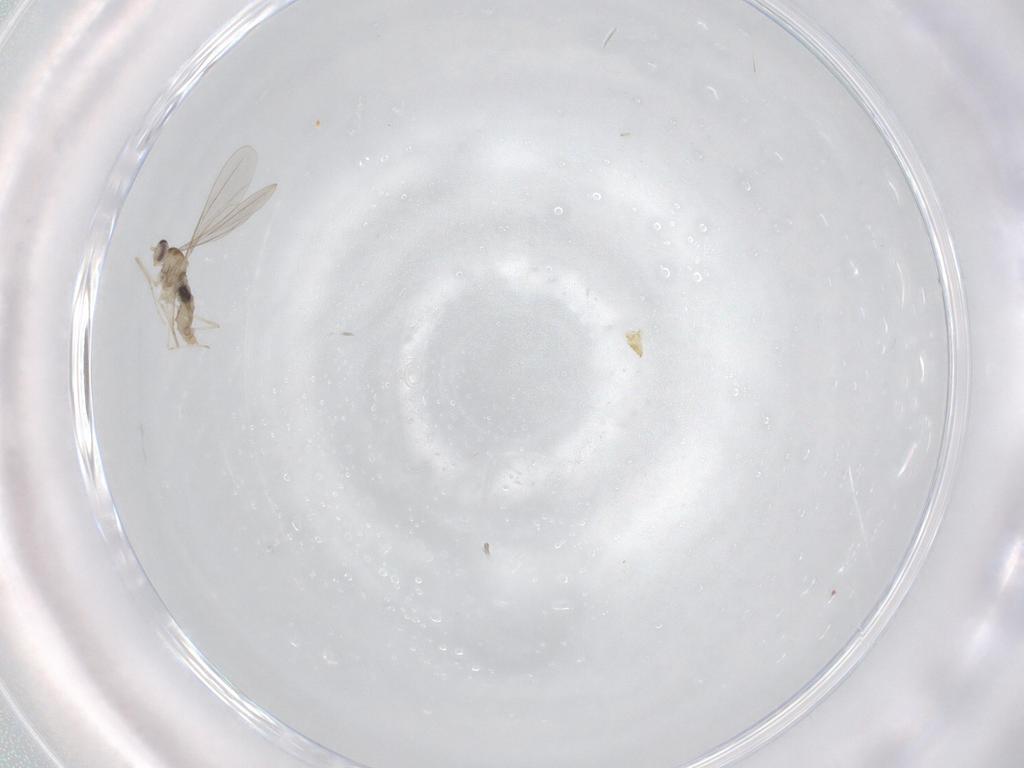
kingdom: Animalia
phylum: Arthropoda
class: Insecta
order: Diptera
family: Cecidomyiidae
